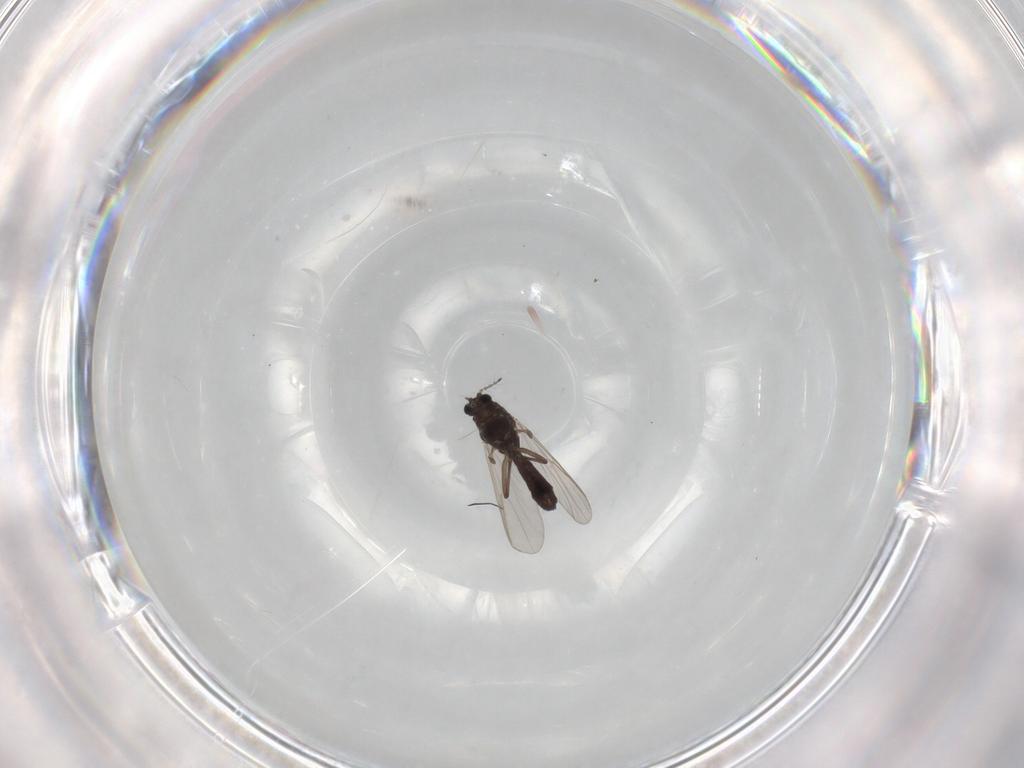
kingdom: Animalia
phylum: Arthropoda
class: Insecta
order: Diptera
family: Chironomidae
